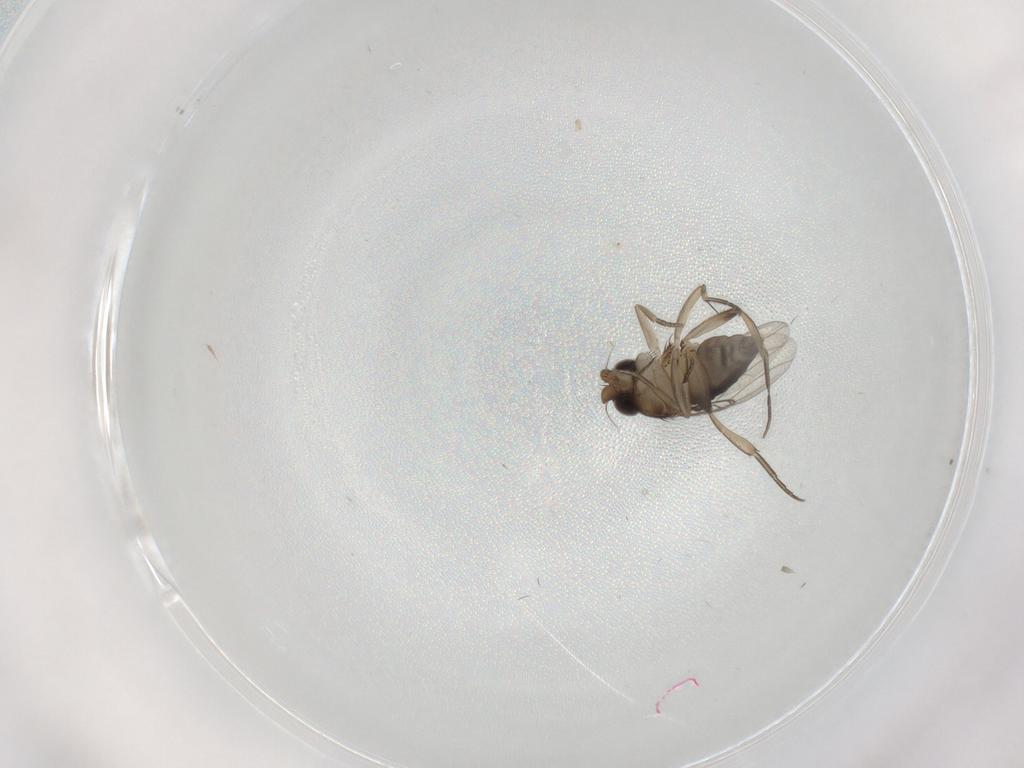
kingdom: Animalia
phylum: Arthropoda
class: Insecta
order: Diptera
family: Phoridae
